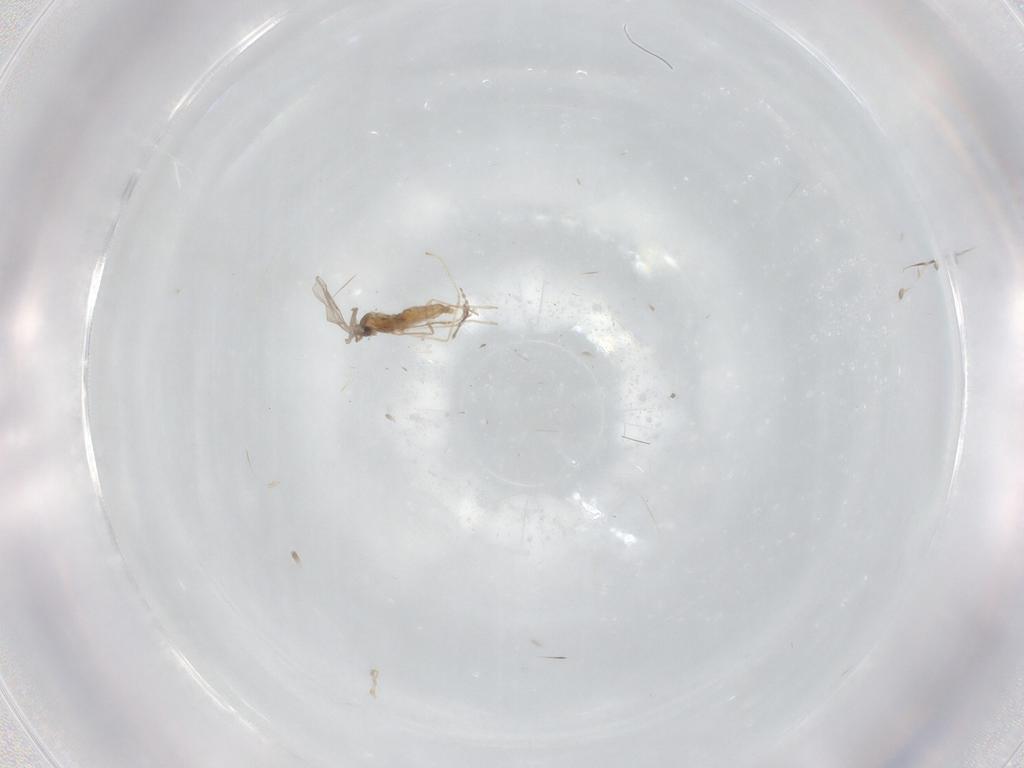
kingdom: Animalia
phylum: Arthropoda
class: Insecta
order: Diptera
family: Cecidomyiidae
